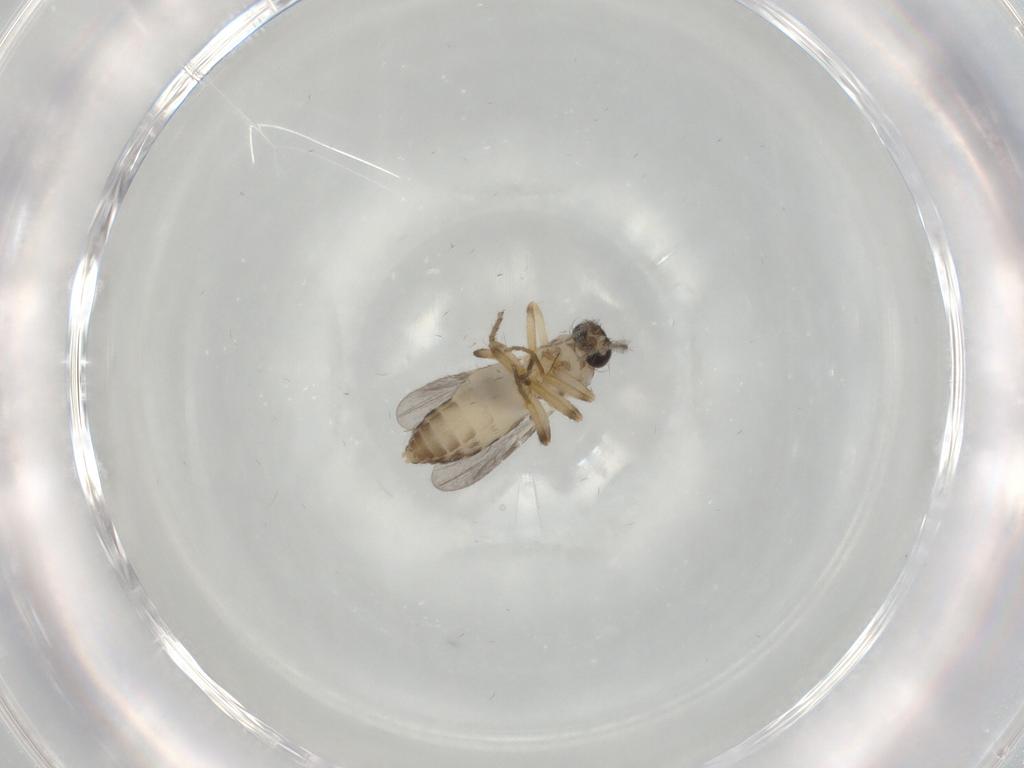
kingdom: Animalia
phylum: Arthropoda
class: Insecta
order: Diptera
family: Ceratopogonidae
